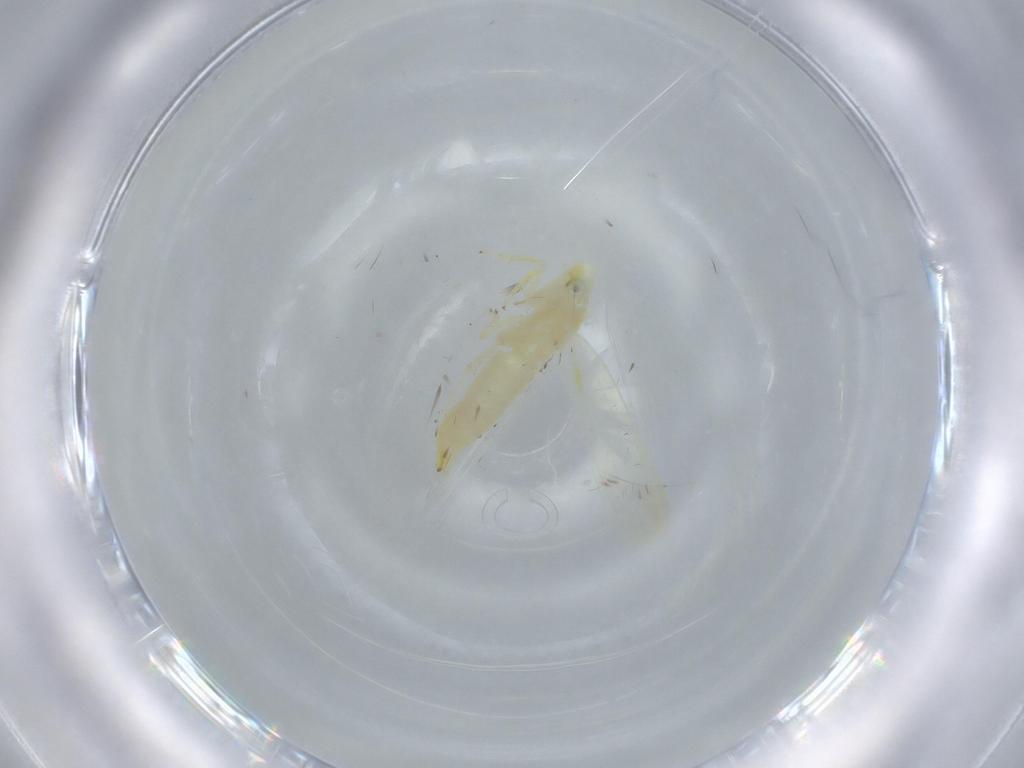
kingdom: Animalia
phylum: Arthropoda
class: Insecta
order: Hemiptera
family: Cicadellidae
